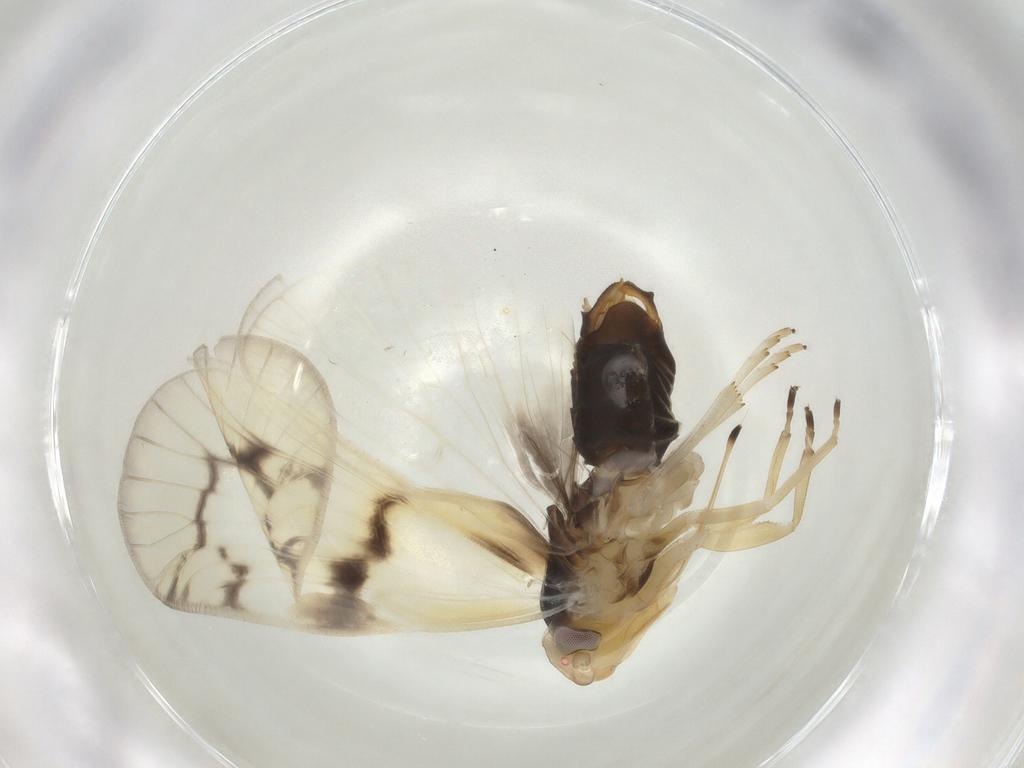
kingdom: Animalia
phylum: Arthropoda
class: Insecta
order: Hemiptera
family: Cixiidae
